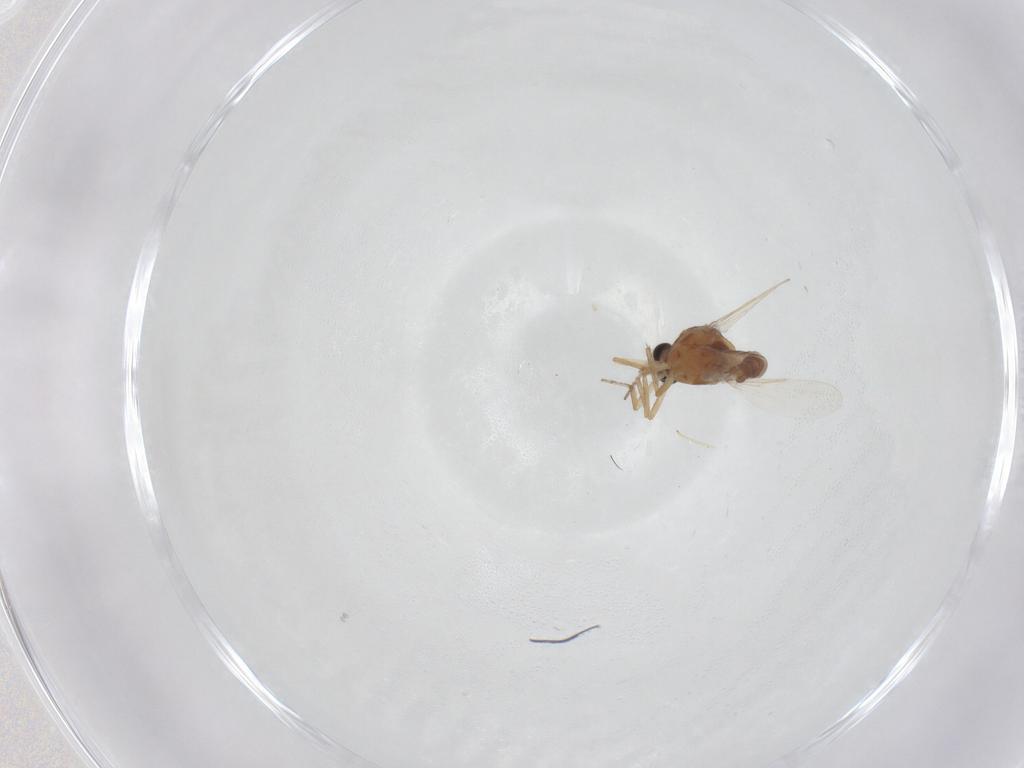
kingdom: Animalia
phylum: Arthropoda
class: Insecta
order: Diptera
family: Ceratopogonidae
